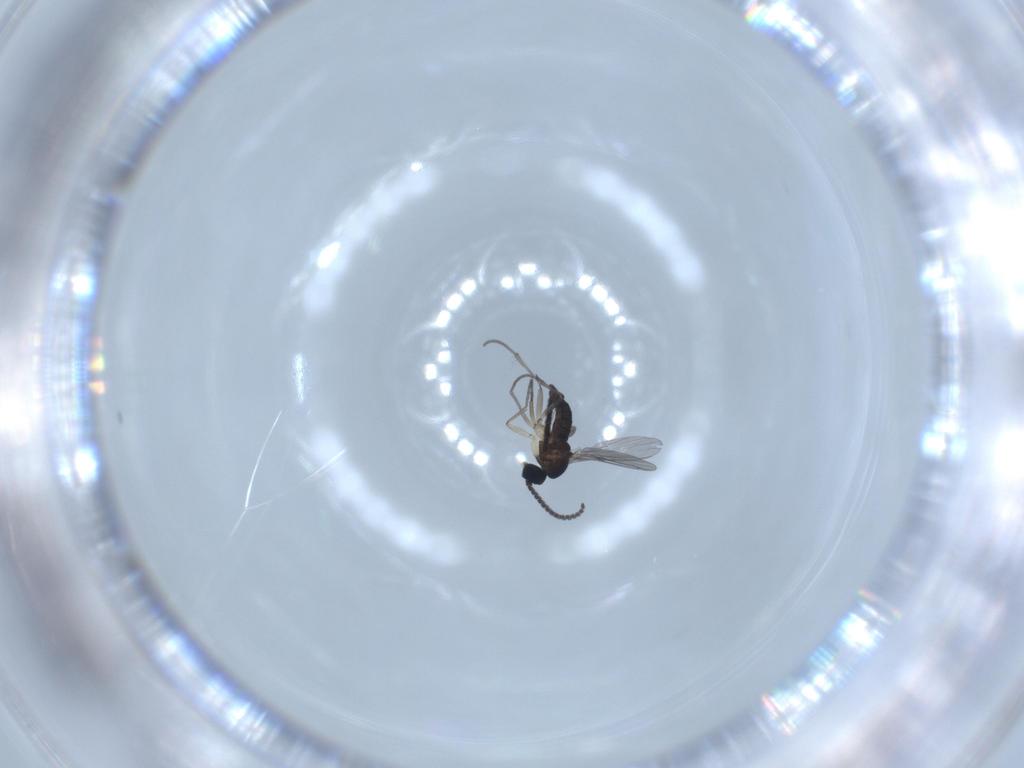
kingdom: Animalia
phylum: Arthropoda
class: Insecta
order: Diptera
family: Sciaridae
